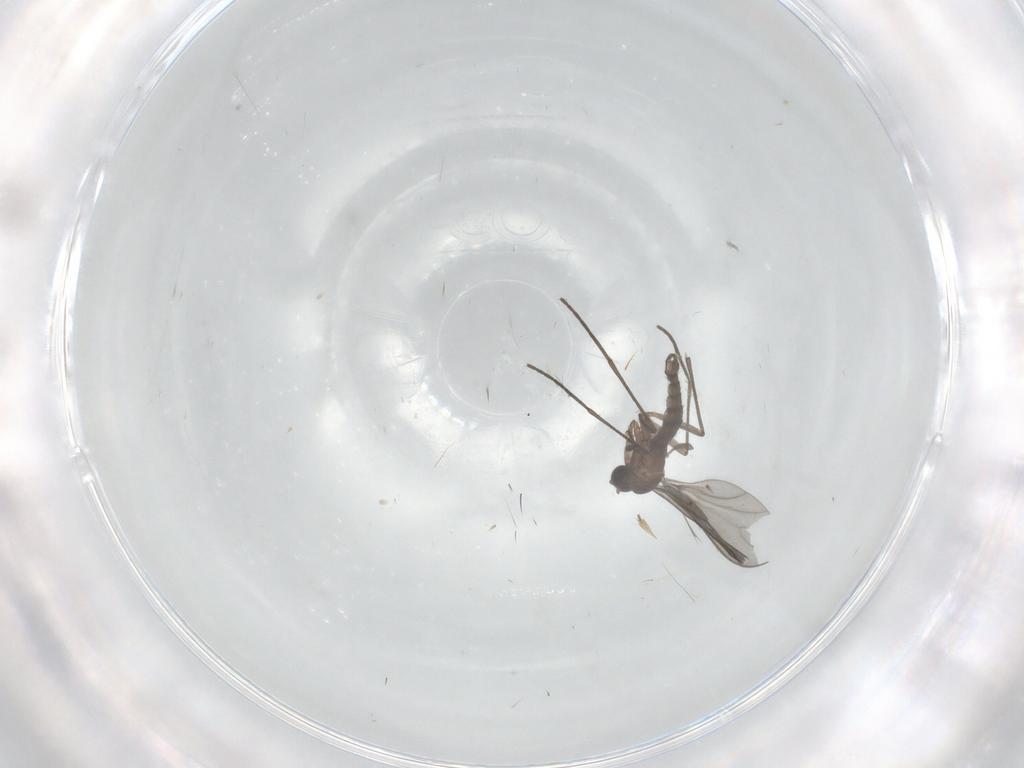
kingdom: Animalia
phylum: Arthropoda
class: Insecta
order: Diptera
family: Sciaridae
